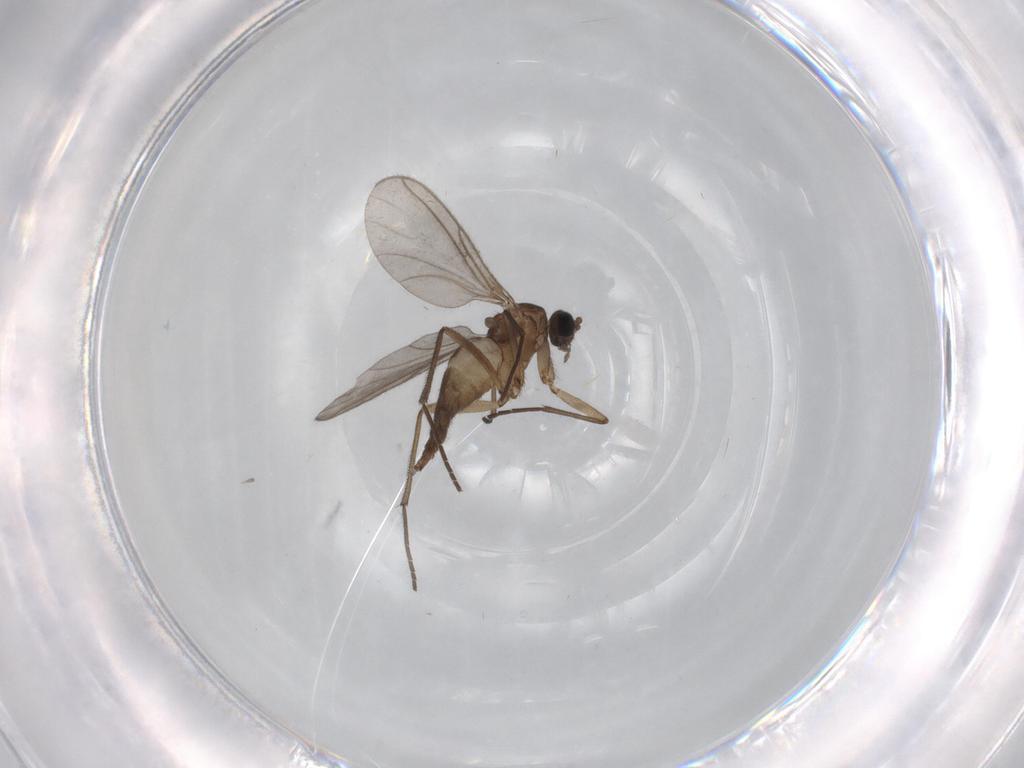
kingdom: Animalia
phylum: Arthropoda
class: Insecta
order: Diptera
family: Sciaridae
